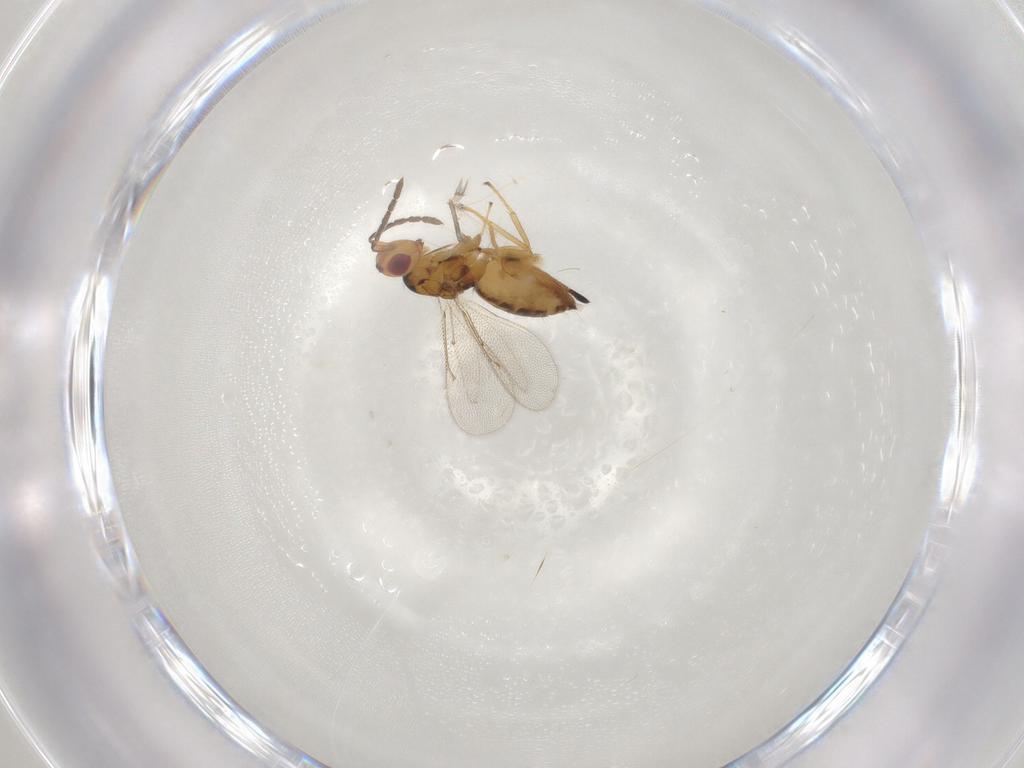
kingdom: Animalia
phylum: Arthropoda
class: Insecta
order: Hymenoptera
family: Eulophidae
